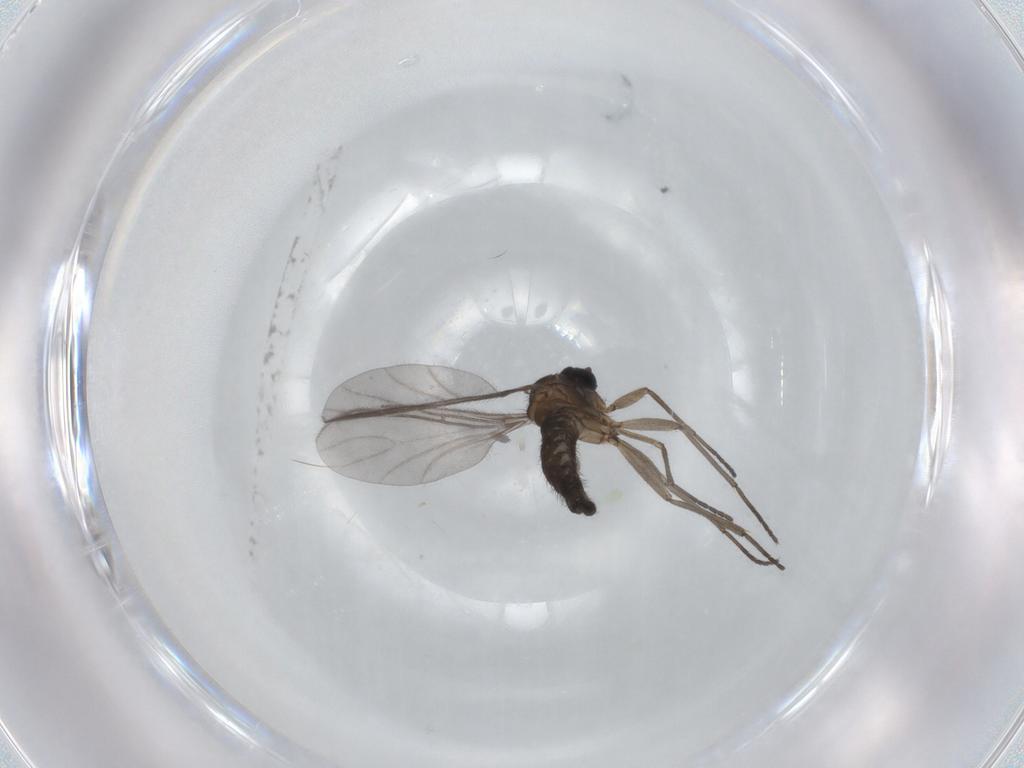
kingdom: Animalia
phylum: Arthropoda
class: Insecta
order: Diptera
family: Sciaridae
